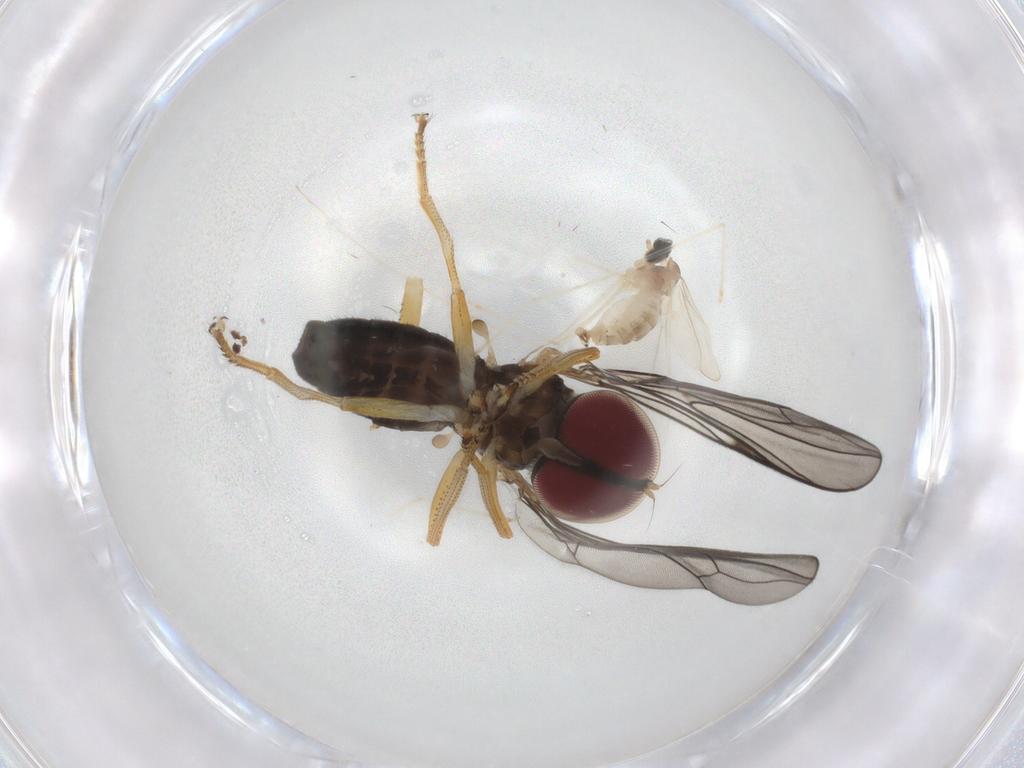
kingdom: Animalia
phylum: Arthropoda
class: Insecta
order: Diptera
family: Cecidomyiidae
